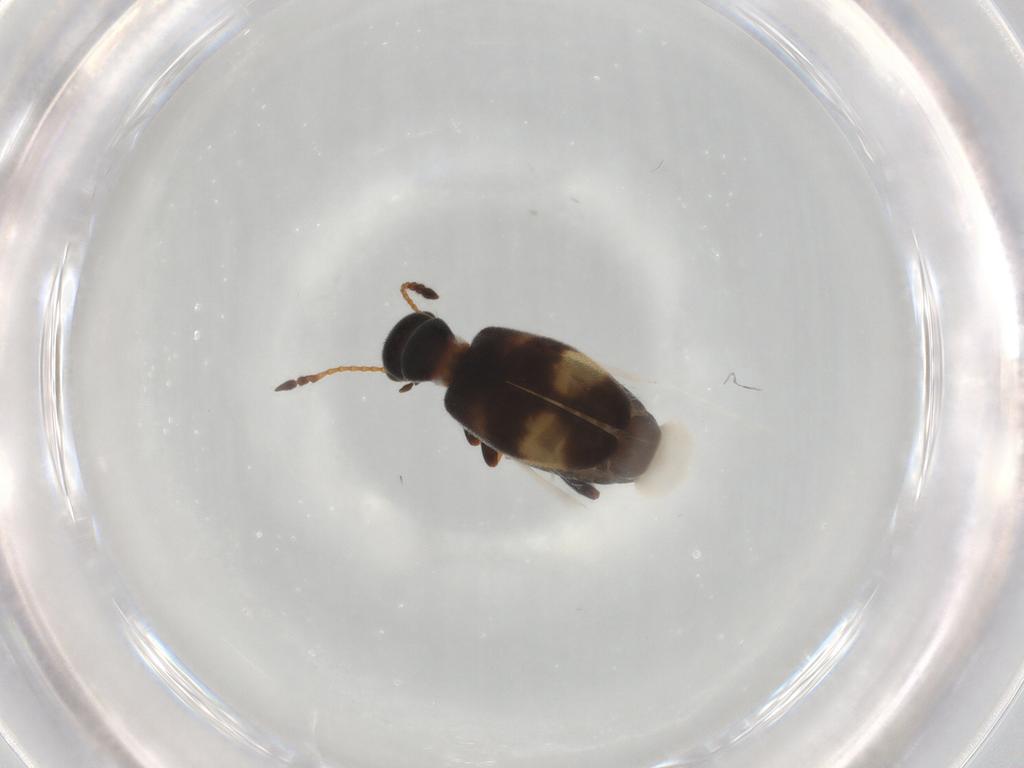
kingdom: Animalia
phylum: Arthropoda
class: Insecta
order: Coleoptera
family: Anthicidae
